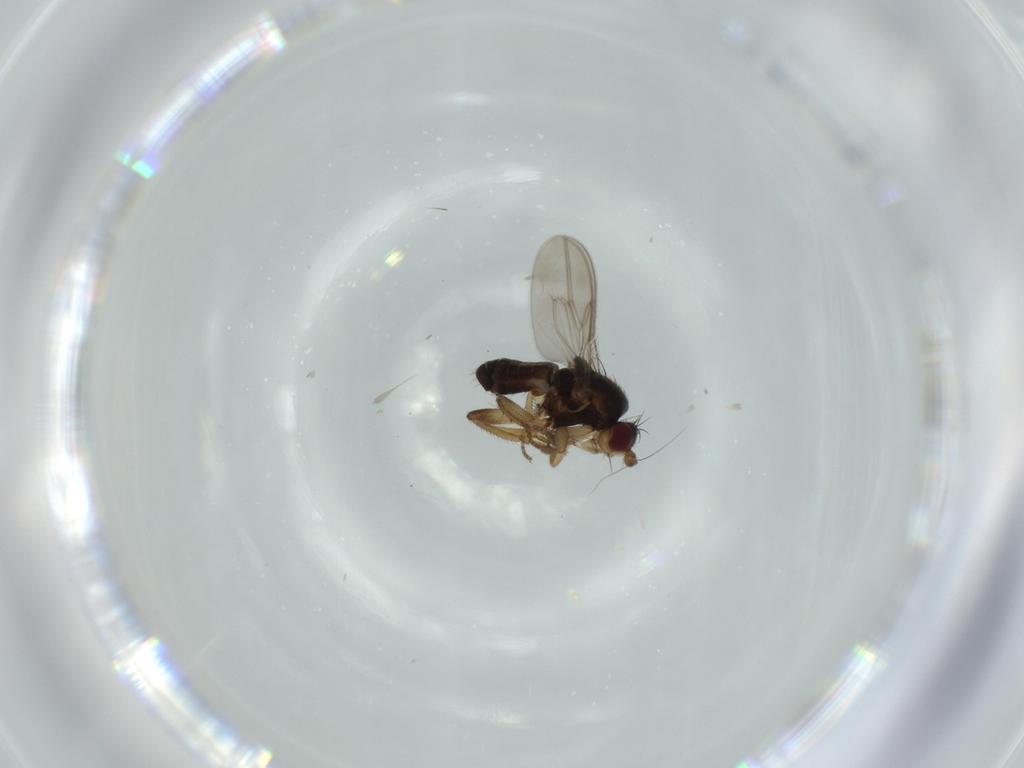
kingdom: Animalia
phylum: Arthropoda
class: Insecta
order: Diptera
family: Sphaeroceridae
